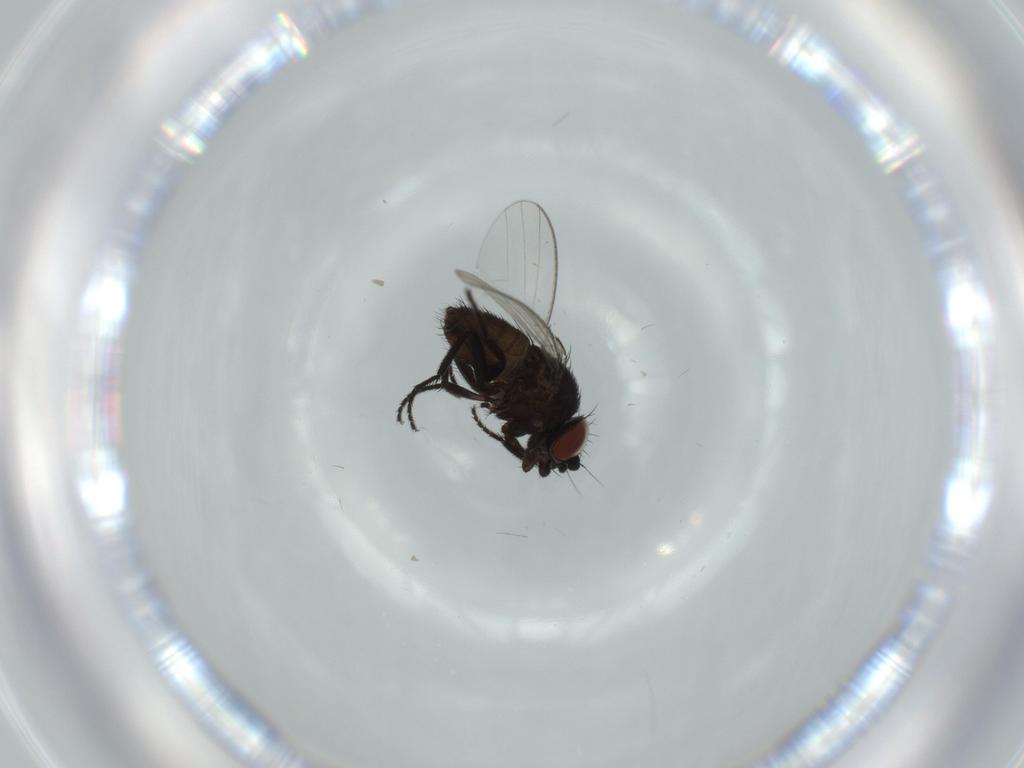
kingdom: Animalia
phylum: Arthropoda
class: Insecta
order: Diptera
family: Milichiidae
